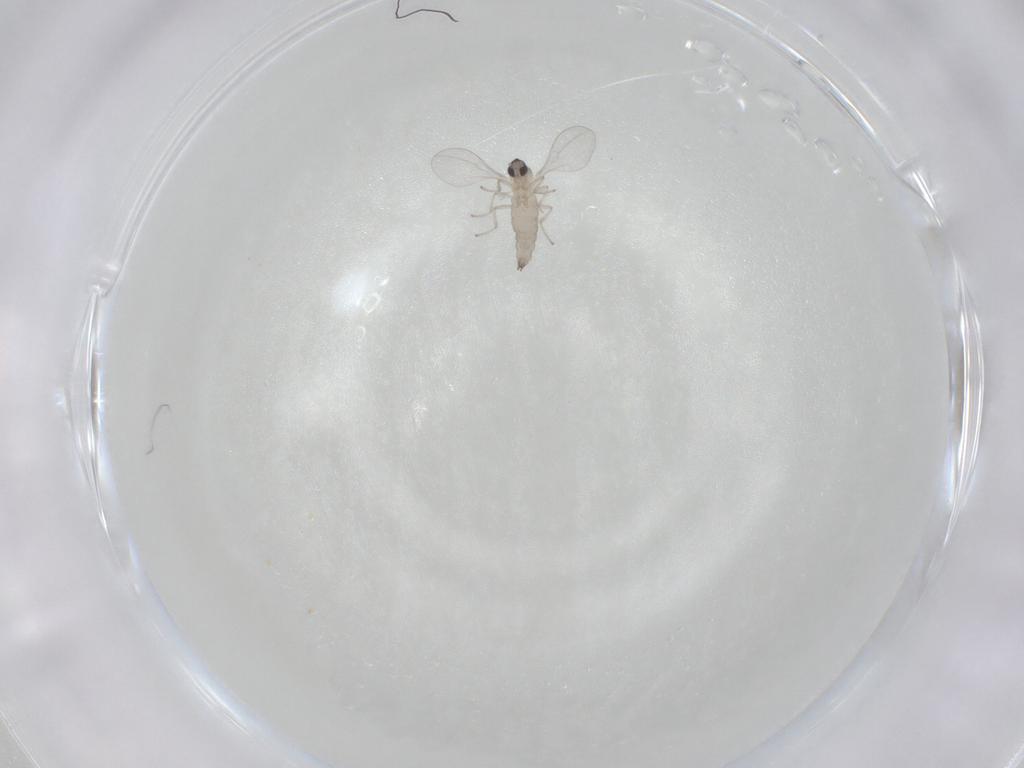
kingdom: Animalia
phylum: Arthropoda
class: Insecta
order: Diptera
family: Cecidomyiidae
